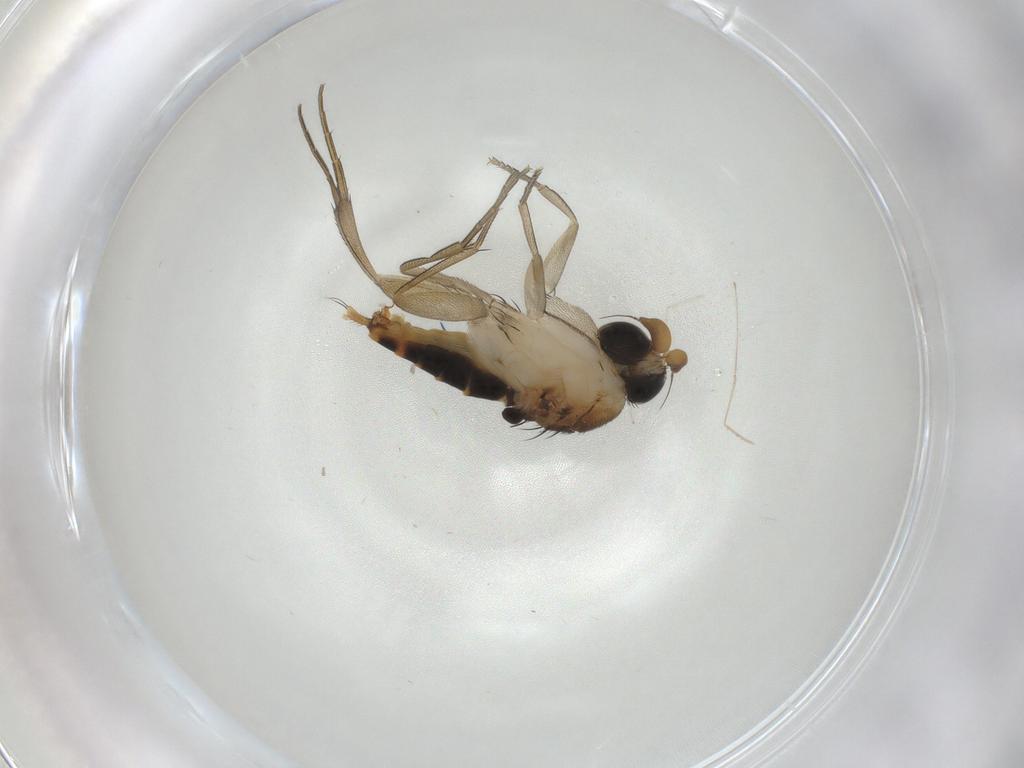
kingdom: Animalia
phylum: Arthropoda
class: Insecta
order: Diptera
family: Phoridae
